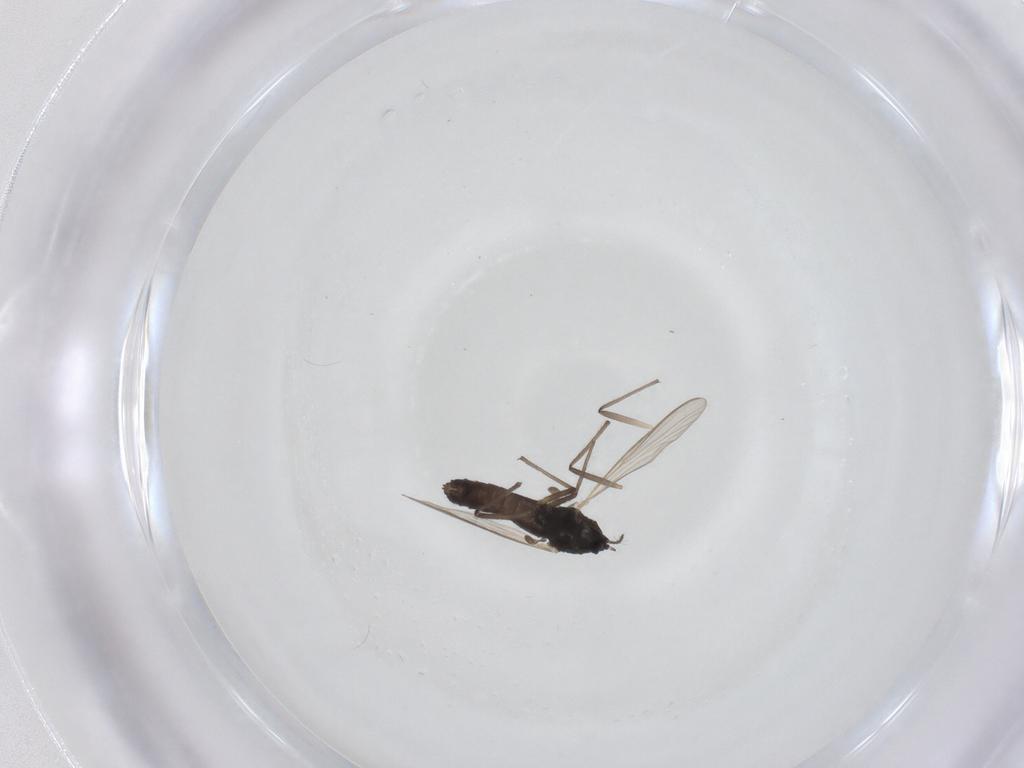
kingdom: Animalia
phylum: Arthropoda
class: Insecta
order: Diptera
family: Chironomidae
